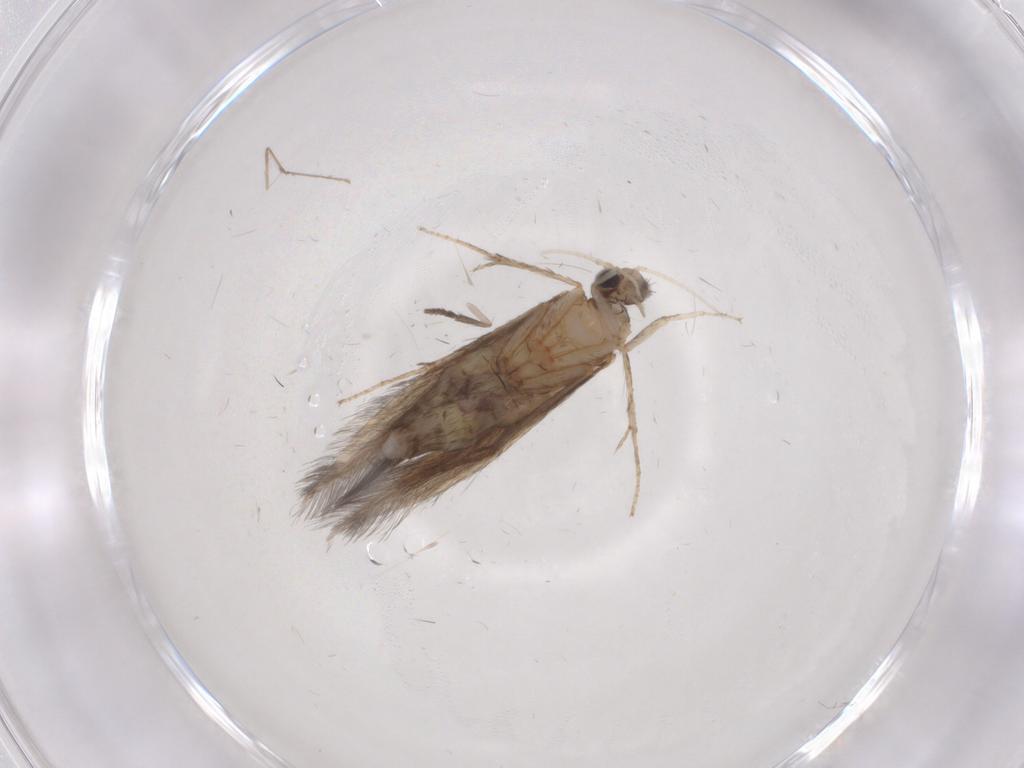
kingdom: Animalia
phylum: Arthropoda
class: Insecta
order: Trichoptera
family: Hydroptilidae
